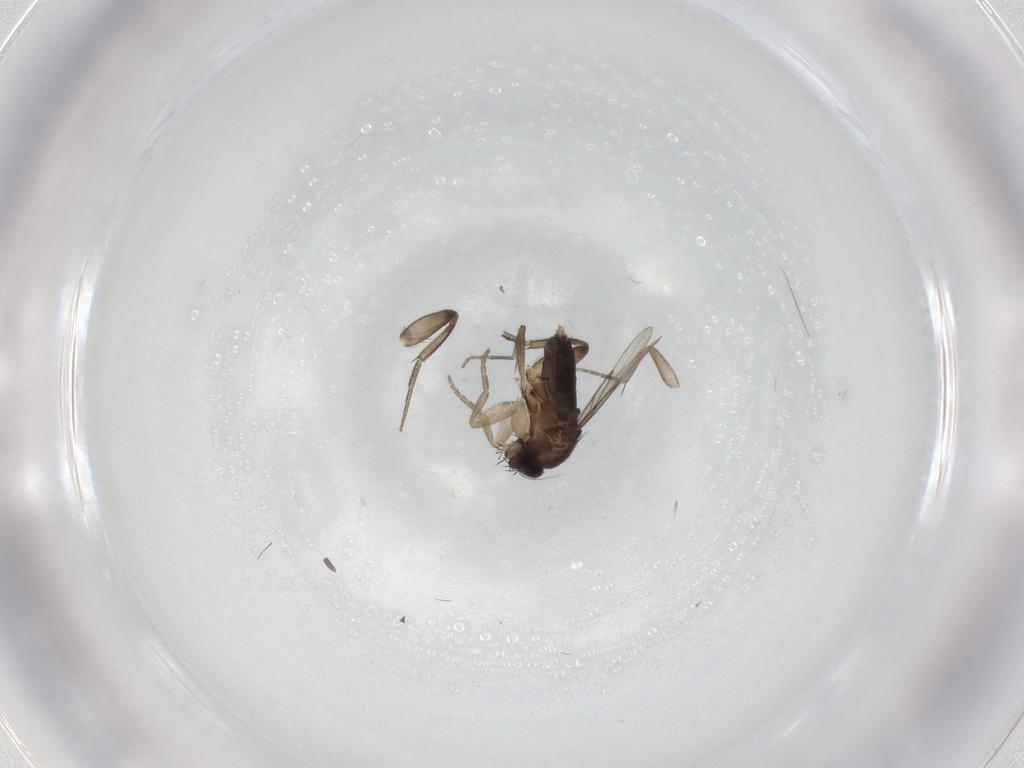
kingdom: Animalia
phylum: Arthropoda
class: Insecta
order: Diptera
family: Phoridae
